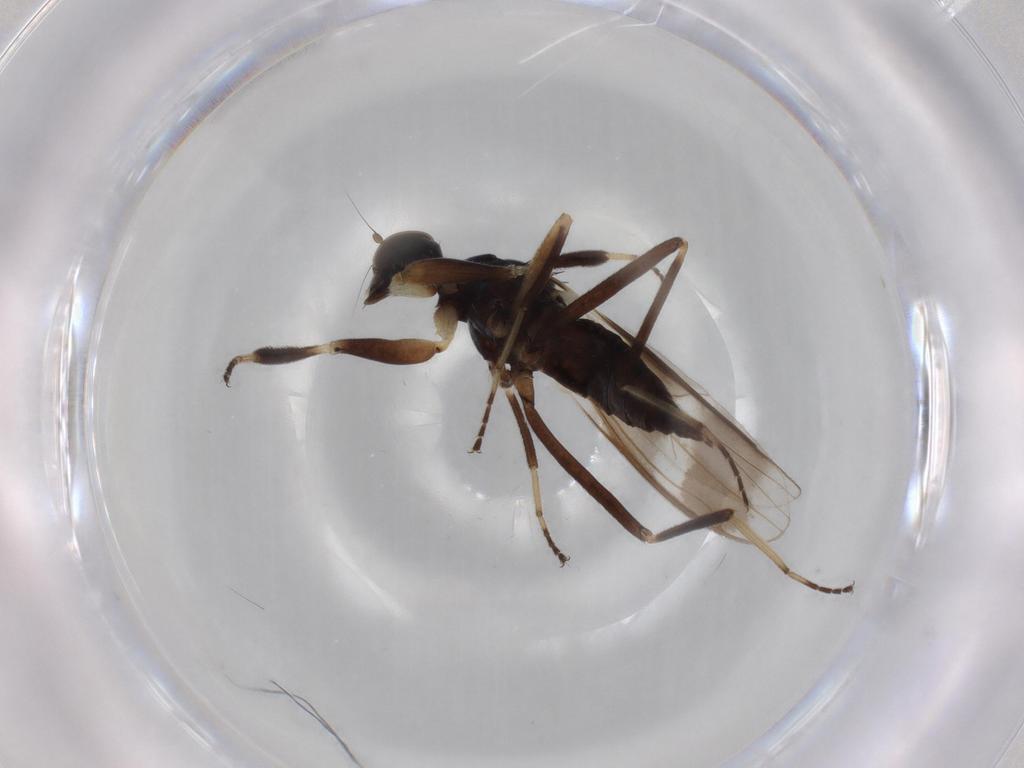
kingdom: Animalia
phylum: Arthropoda
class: Insecta
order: Diptera
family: Hybotidae
